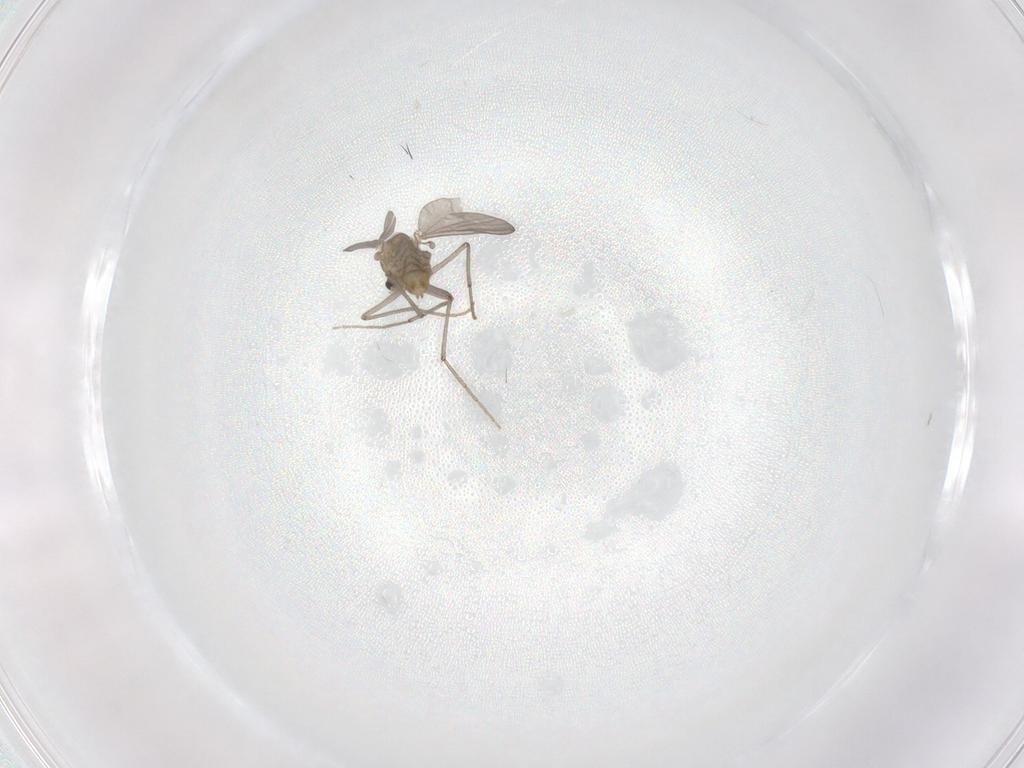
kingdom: Animalia
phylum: Arthropoda
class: Insecta
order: Diptera
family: Chironomidae
